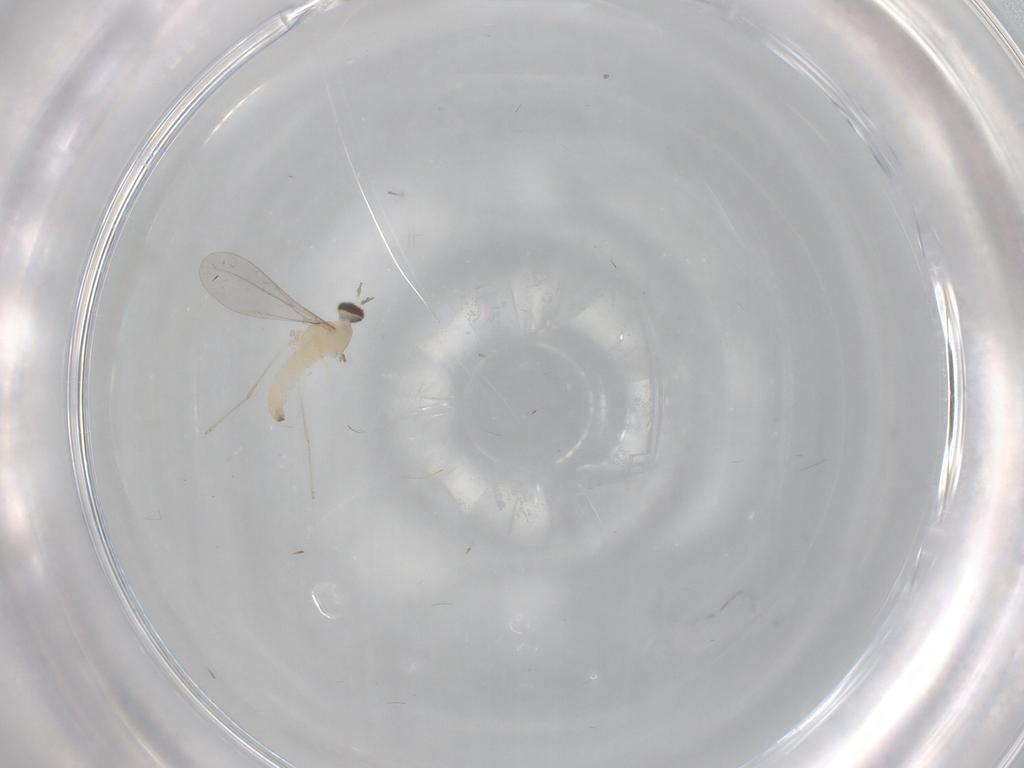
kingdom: Animalia
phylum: Arthropoda
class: Insecta
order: Diptera
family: Cecidomyiidae
